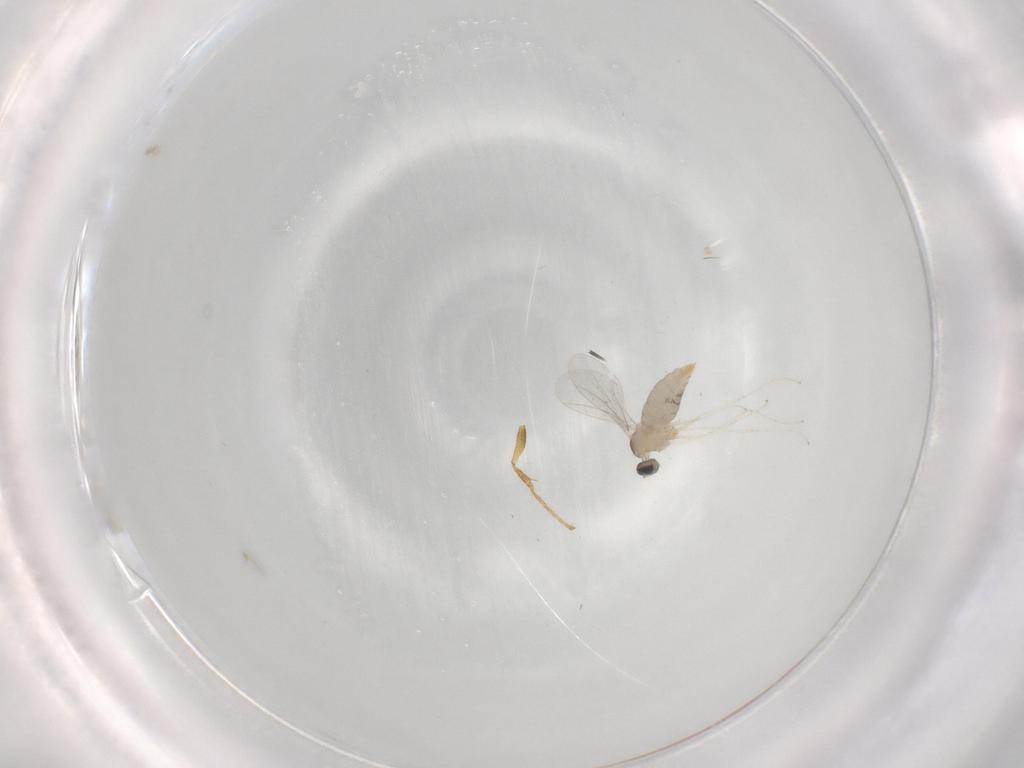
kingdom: Animalia
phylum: Arthropoda
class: Insecta
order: Diptera
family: Cecidomyiidae
